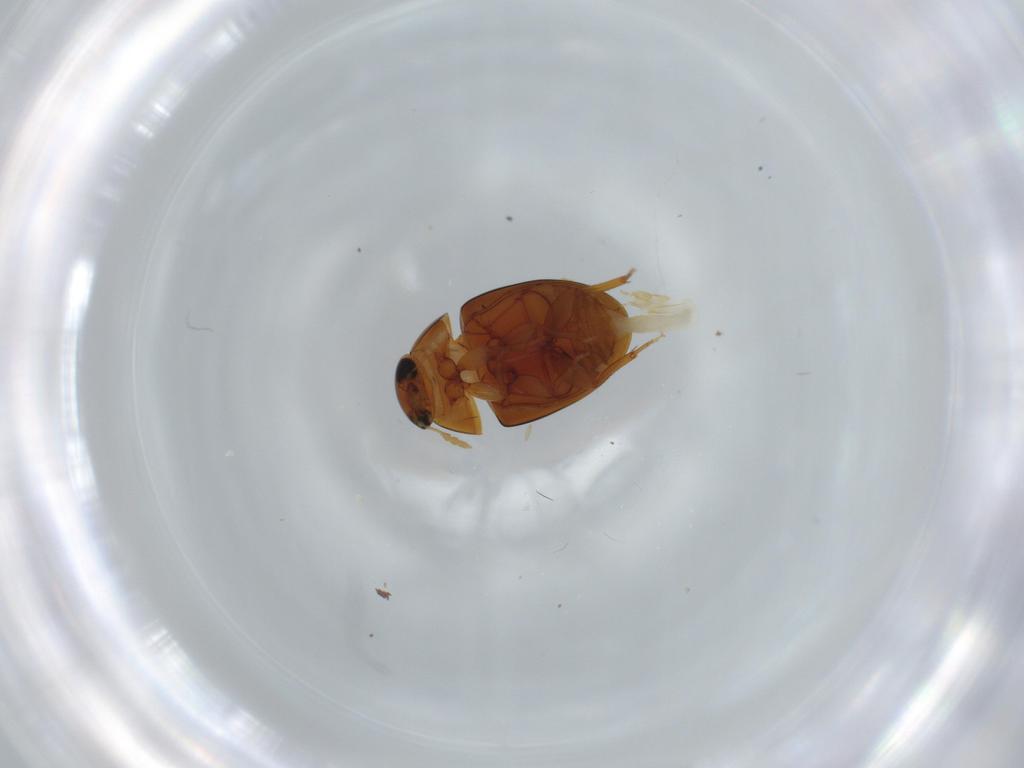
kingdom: Animalia
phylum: Arthropoda
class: Insecta
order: Coleoptera
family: Phalacridae
